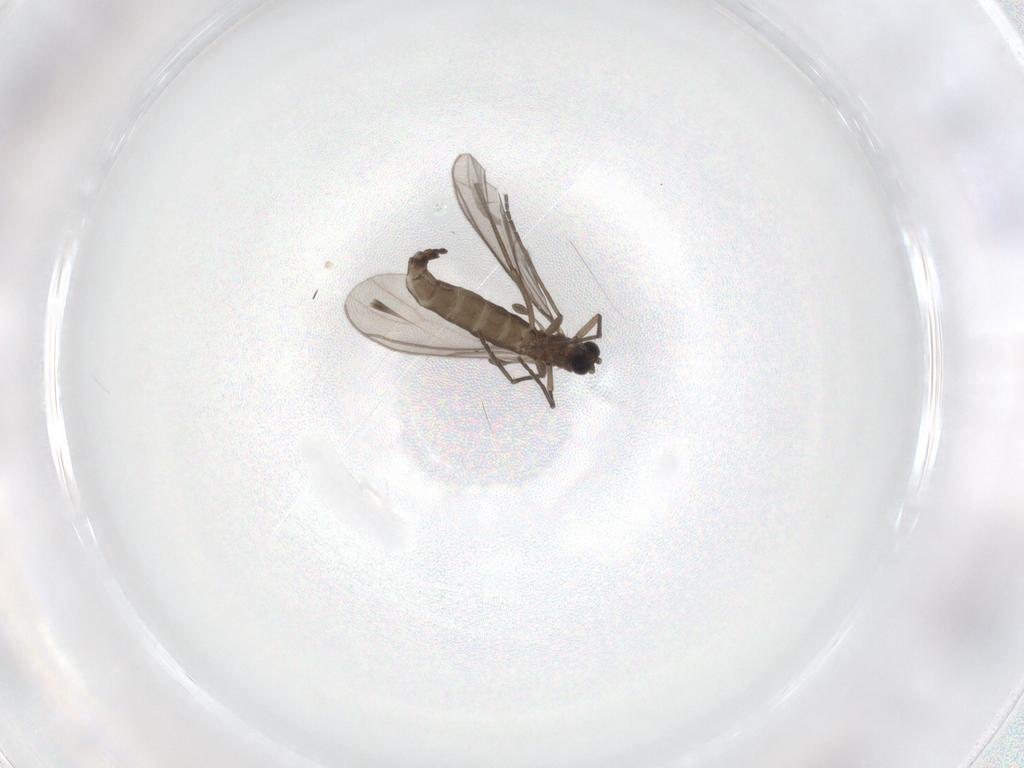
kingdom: Animalia
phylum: Arthropoda
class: Insecta
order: Diptera
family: Sciaridae
